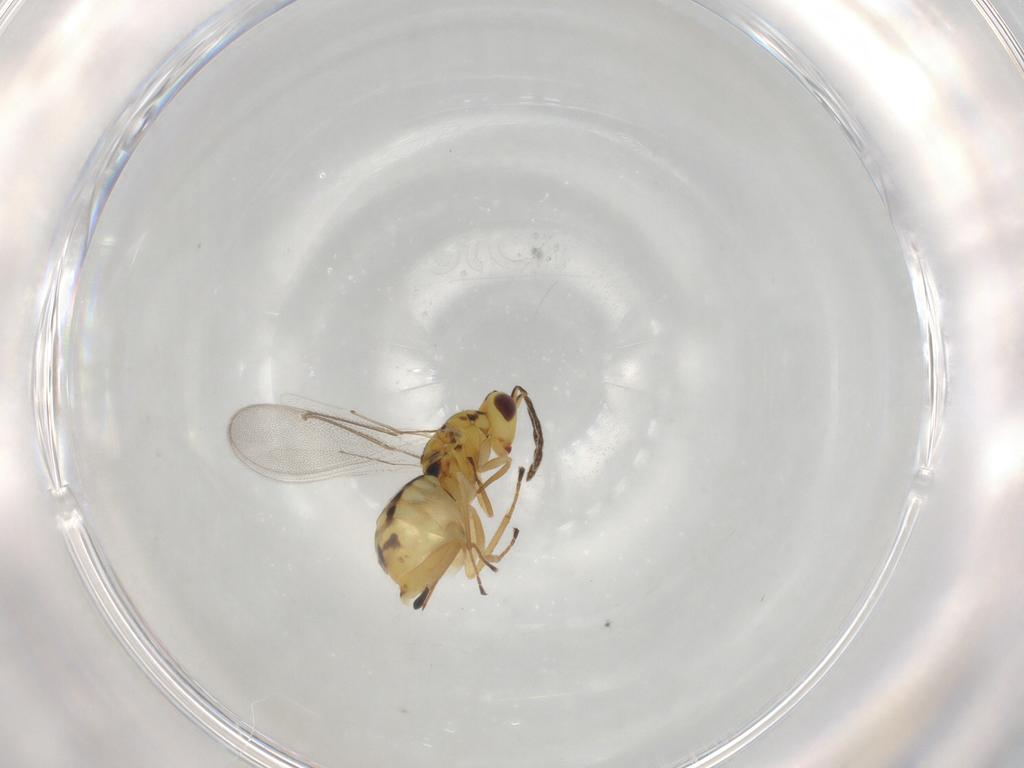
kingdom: Animalia
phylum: Arthropoda
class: Insecta
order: Hymenoptera
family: Eulophidae
